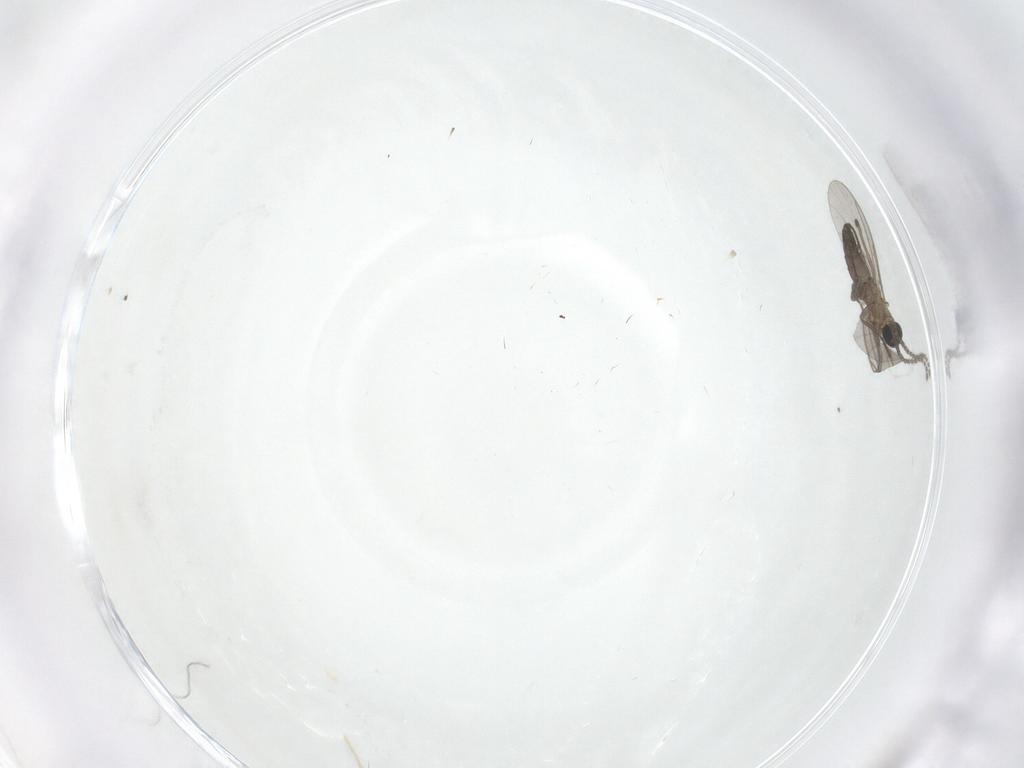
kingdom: Animalia
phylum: Arthropoda
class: Insecta
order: Diptera
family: Sciaridae
